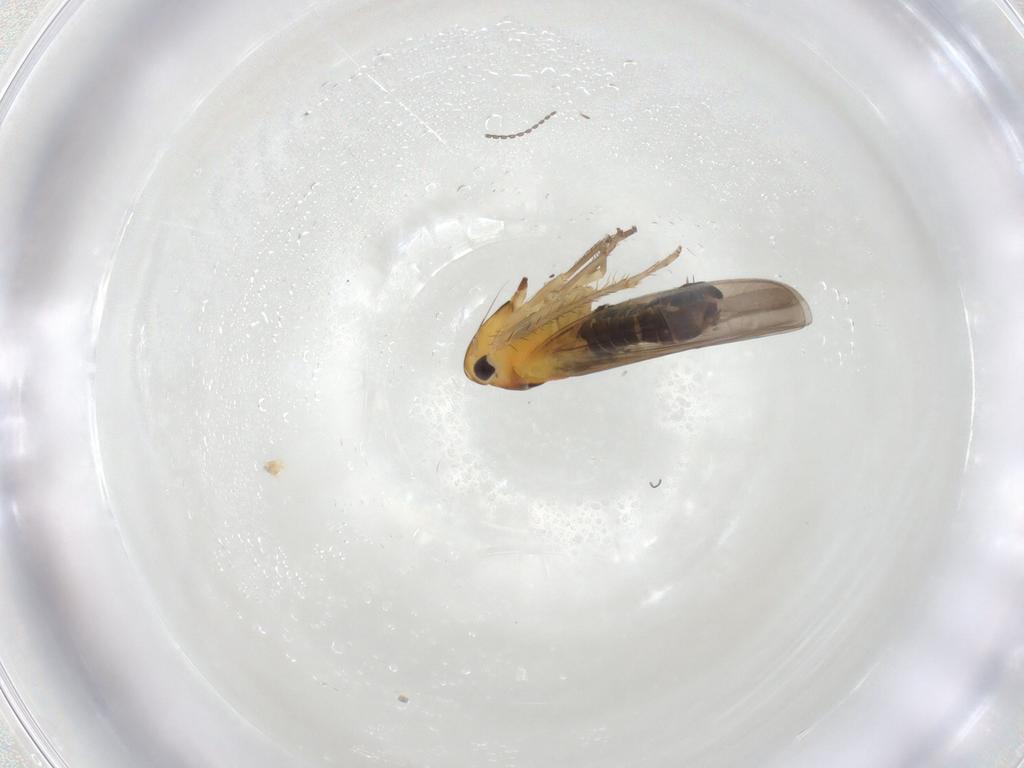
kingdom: Animalia
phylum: Arthropoda
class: Insecta
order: Hemiptera
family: Cicadellidae
